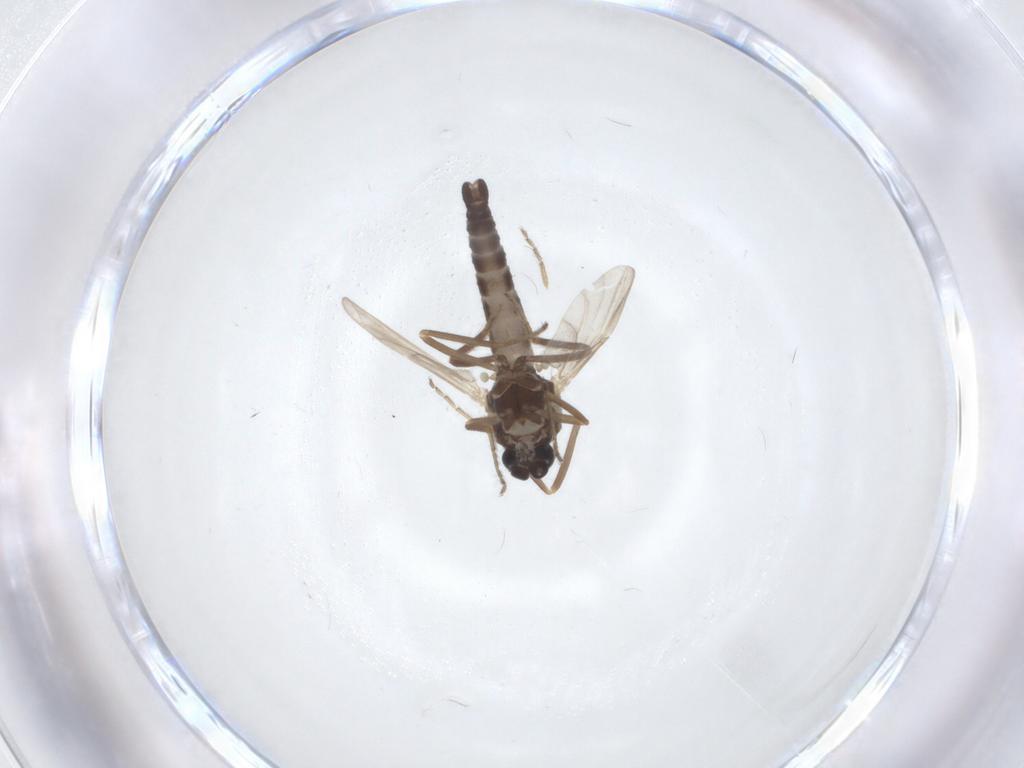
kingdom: Animalia
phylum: Arthropoda
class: Insecta
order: Diptera
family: Ceratopogonidae
